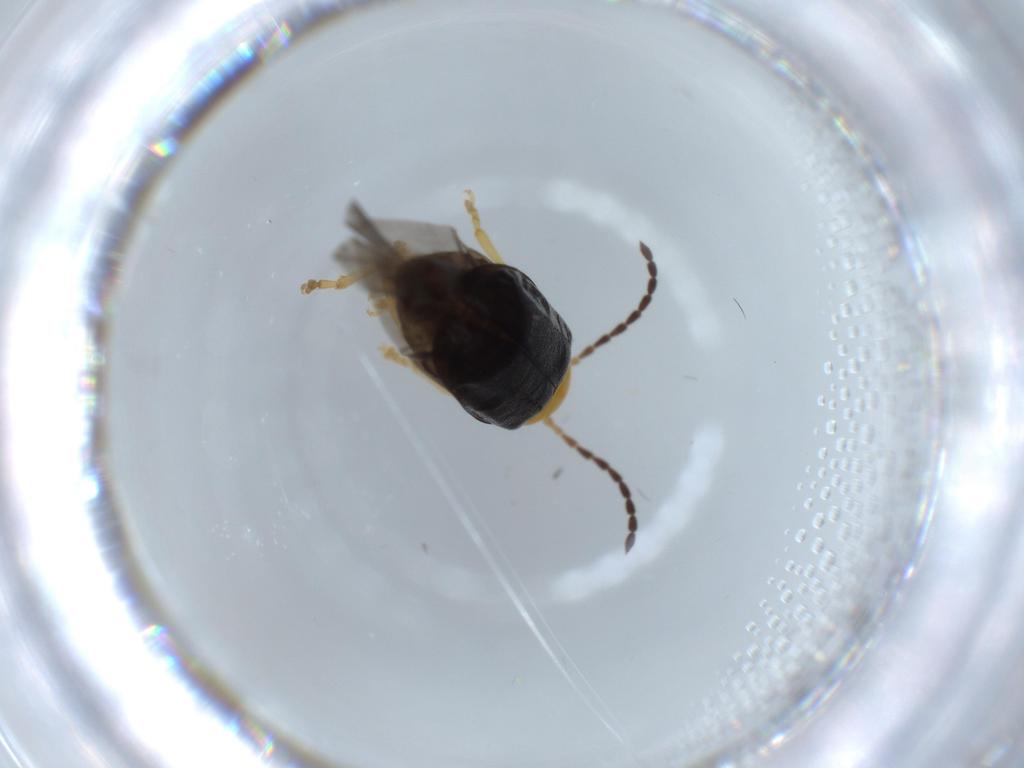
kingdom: Animalia
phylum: Arthropoda
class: Insecta
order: Coleoptera
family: Chrysomelidae
